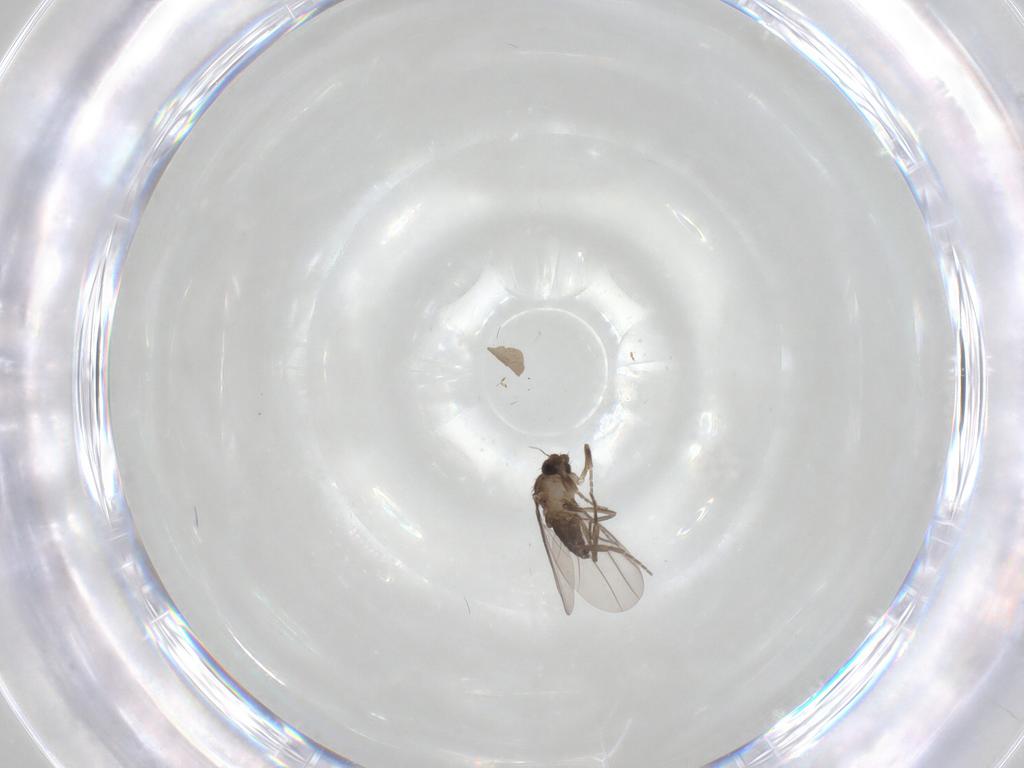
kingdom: Animalia
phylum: Arthropoda
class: Insecta
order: Diptera
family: Phoridae
